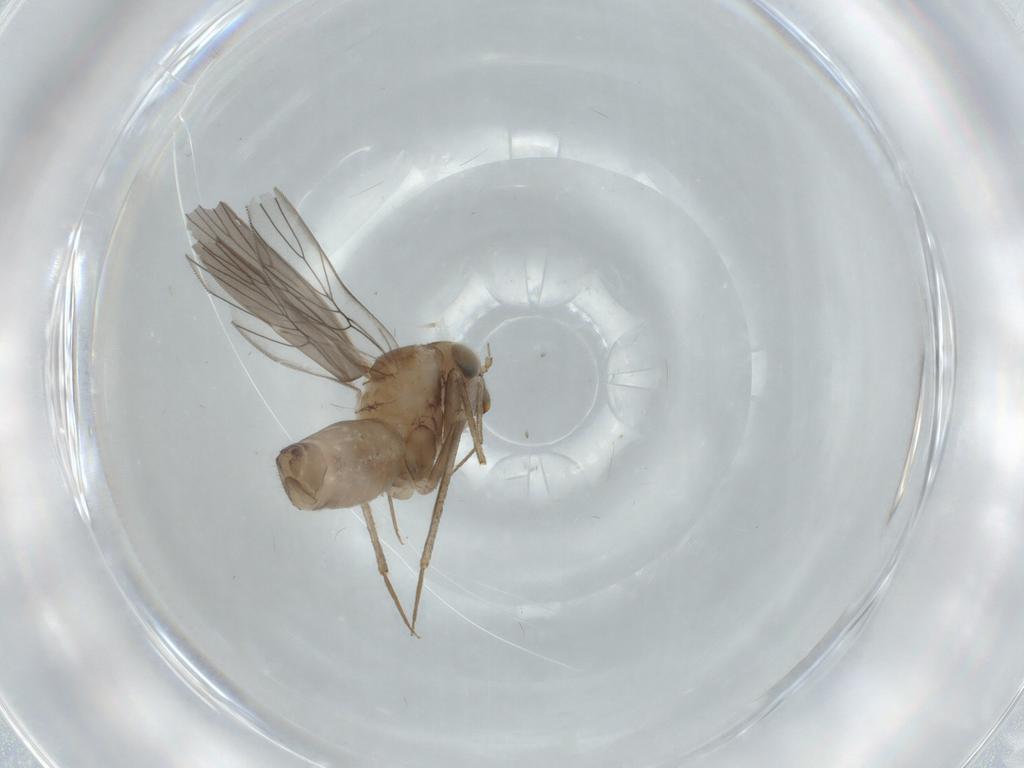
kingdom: Animalia
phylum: Arthropoda
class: Insecta
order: Psocodea
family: Lepidopsocidae
